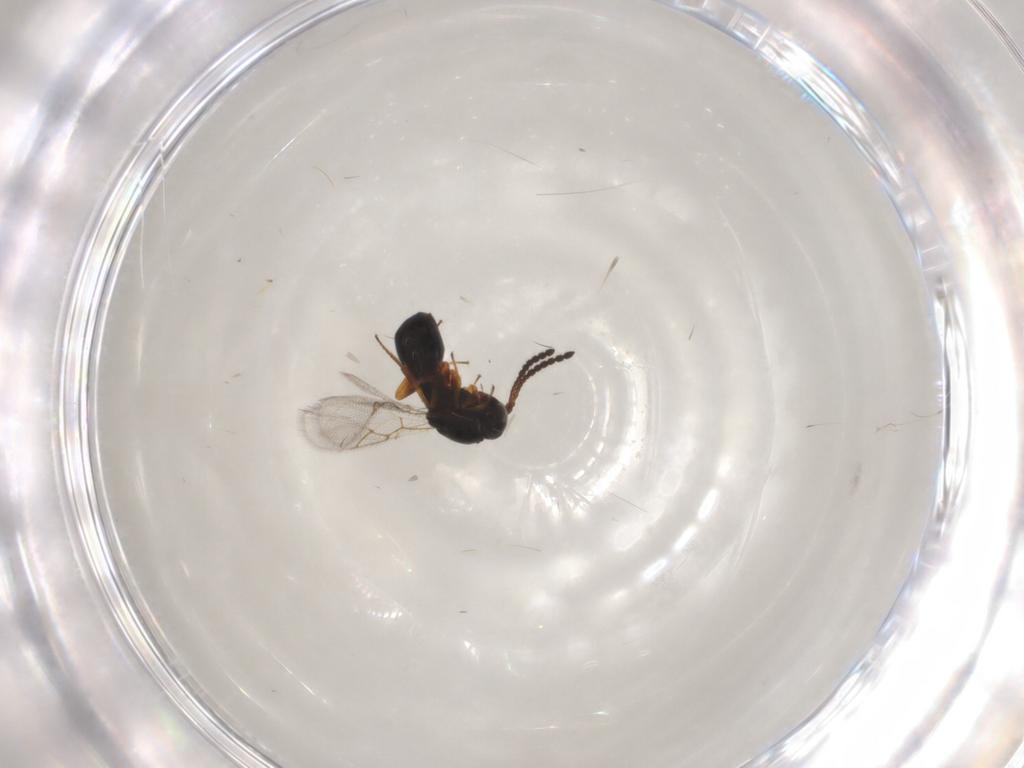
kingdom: Animalia
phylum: Arthropoda
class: Insecta
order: Hymenoptera
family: Figitidae
